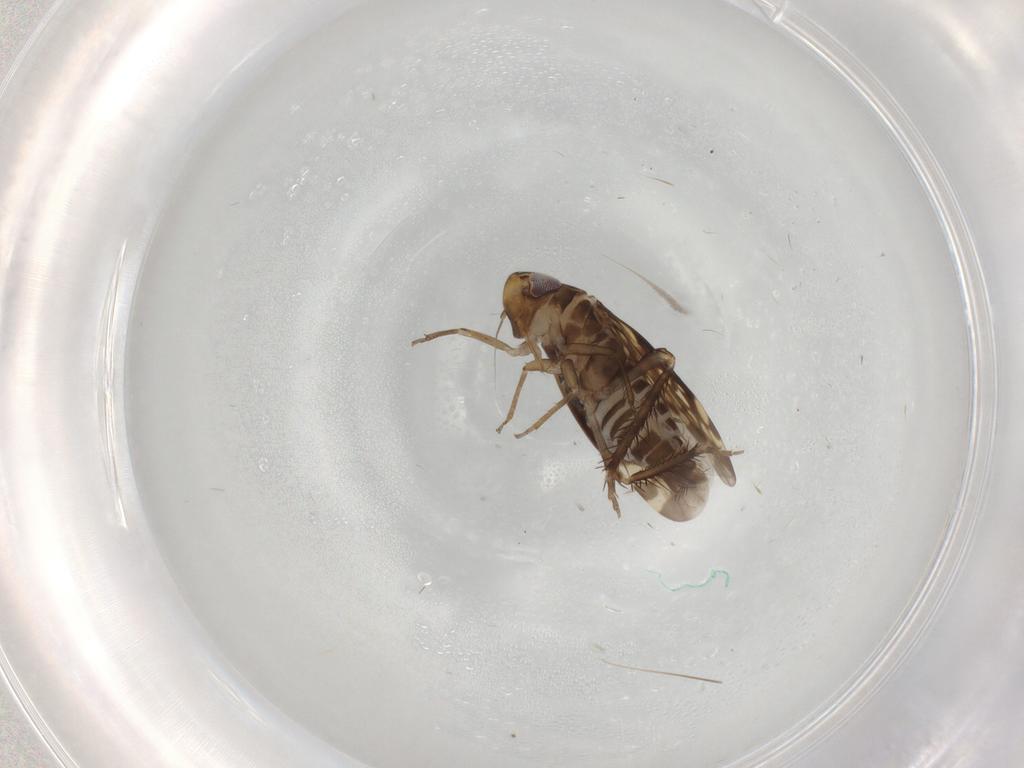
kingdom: Animalia
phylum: Arthropoda
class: Insecta
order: Hemiptera
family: Cicadellidae
